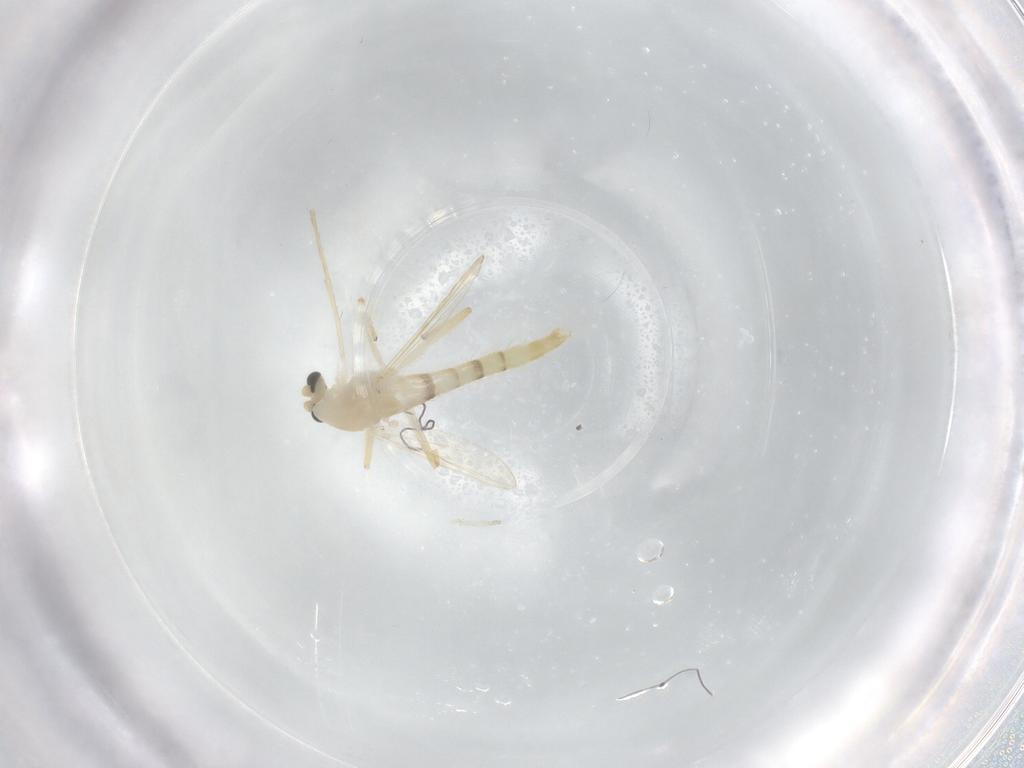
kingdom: Animalia
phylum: Arthropoda
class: Insecta
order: Diptera
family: Chironomidae
